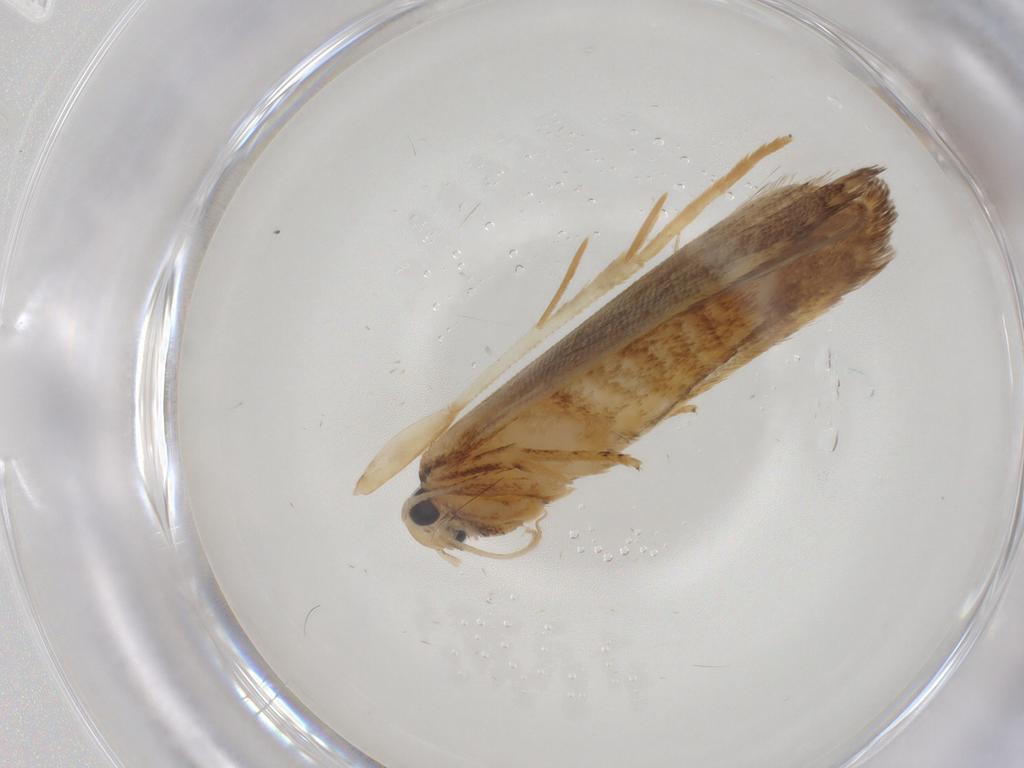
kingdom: Animalia
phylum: Arthropoda
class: Insecta
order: Lepidoptera
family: Gelechiidae
